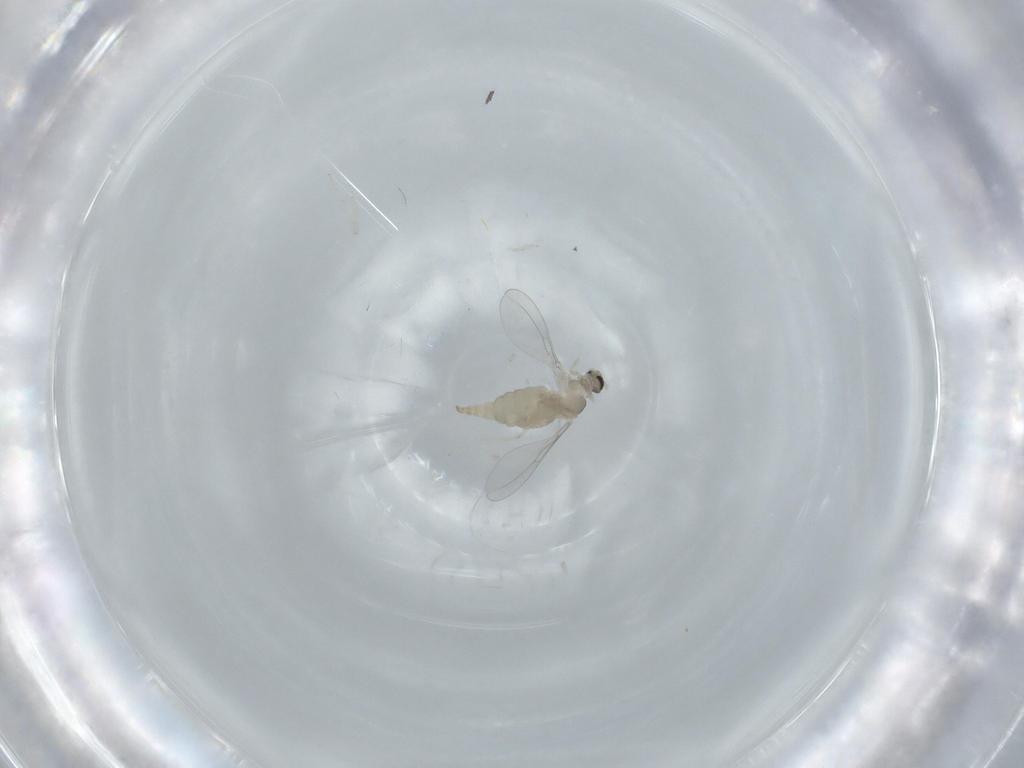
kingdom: Animalia
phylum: Arthropoda
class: Insecta
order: Diptera
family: Cecidomyiidae
